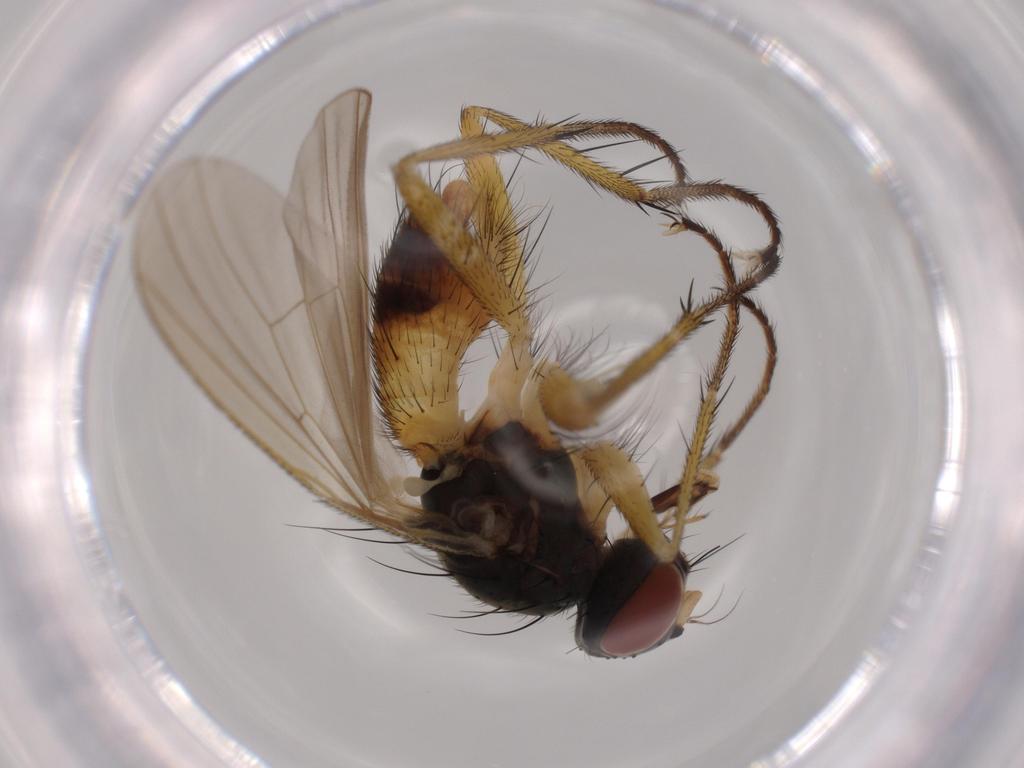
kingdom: Animalia
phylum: Arthropoda
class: Insecta
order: Diptera
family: Muscidae
